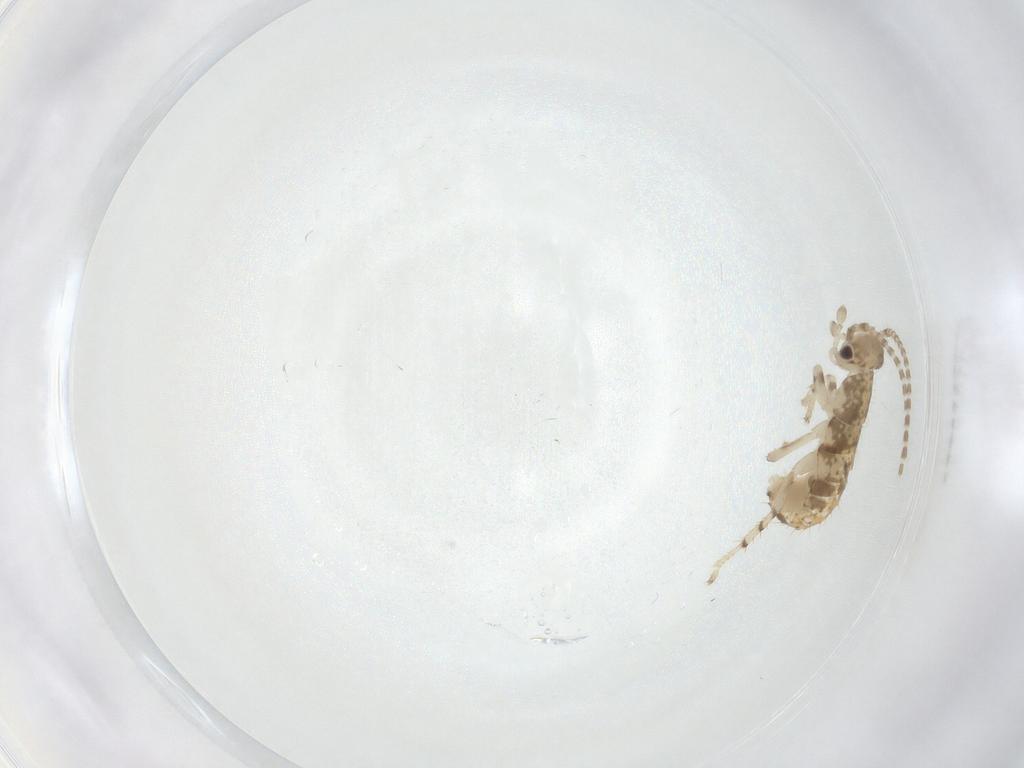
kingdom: Animalia
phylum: Arthropoda
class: Insecta
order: Blattodea
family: Ectobiidae
